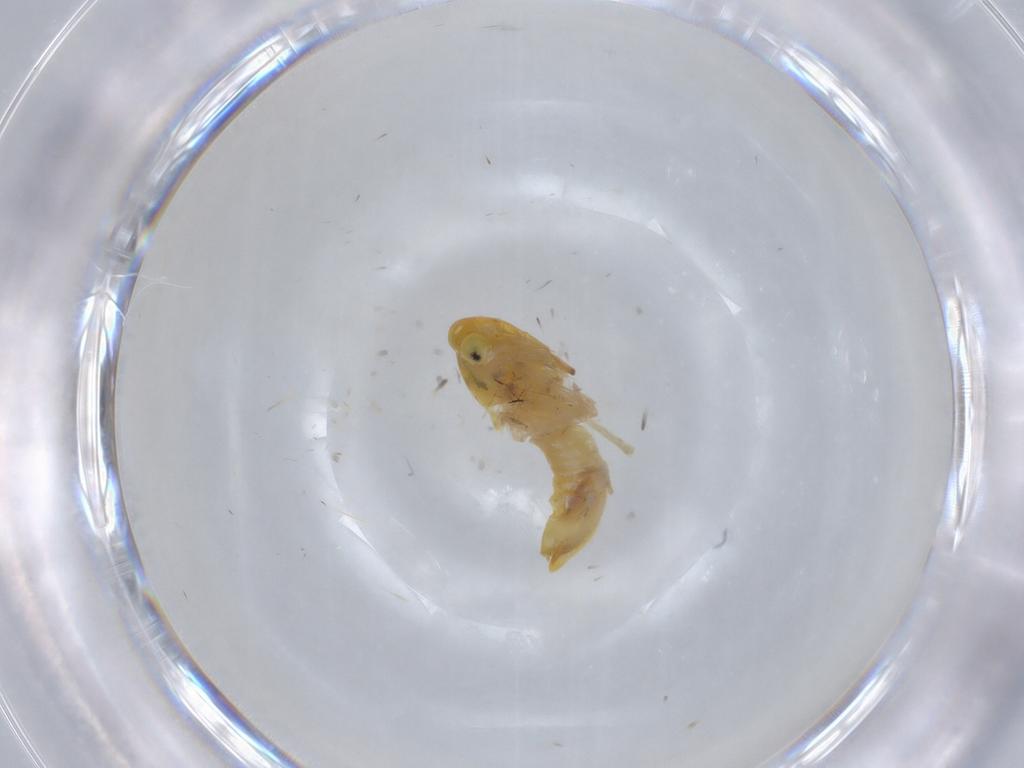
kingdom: Animalia
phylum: Arthropoda
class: Insecta
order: Hemiptera
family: Cicadellidae
